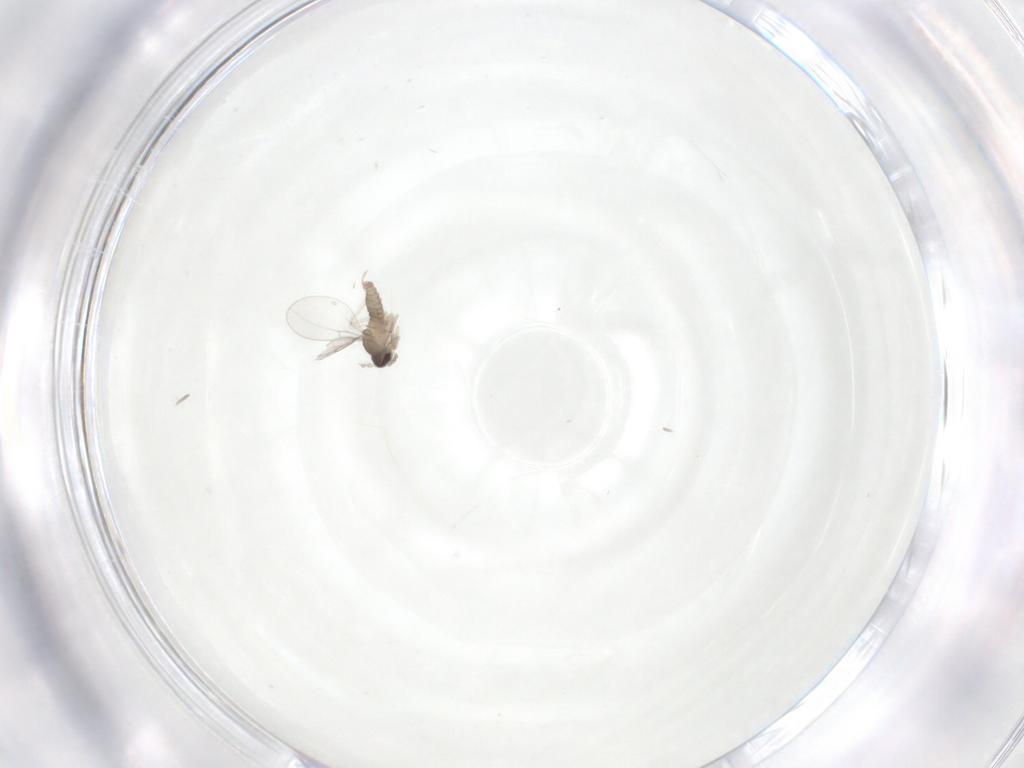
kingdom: Animalia
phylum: Arthropoda
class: Insecta
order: Diptera
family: Cecidomyiidae
